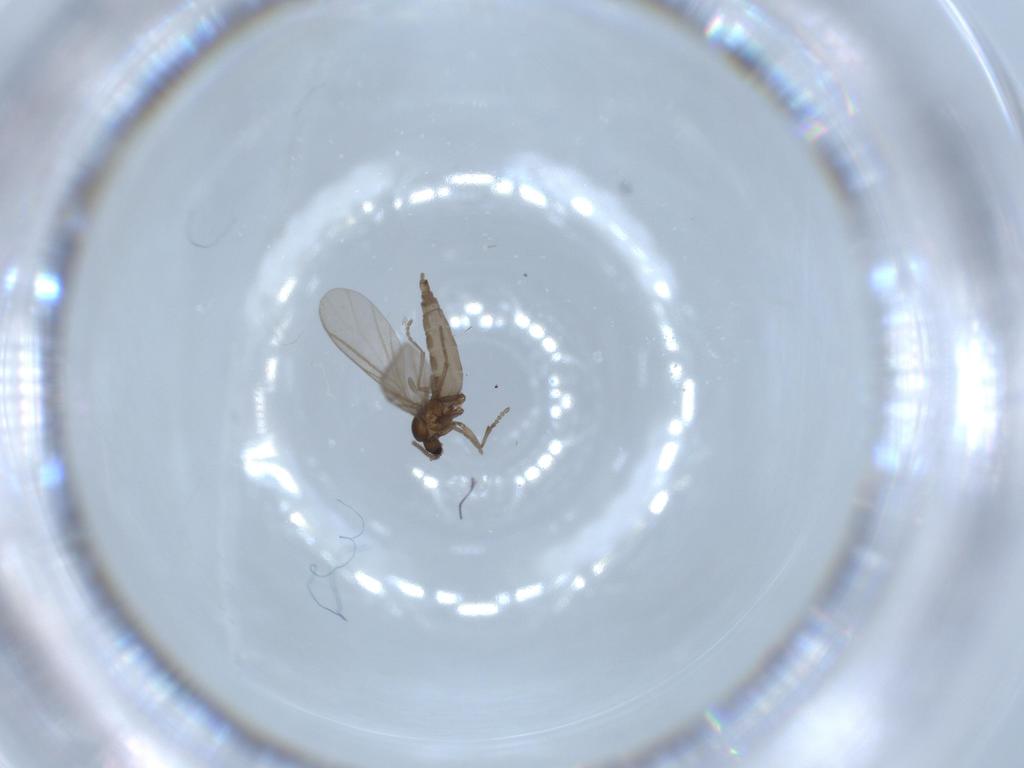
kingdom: Animalia
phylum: Arthropoda
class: Insecta
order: Diptera
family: Cecidomyiidae
